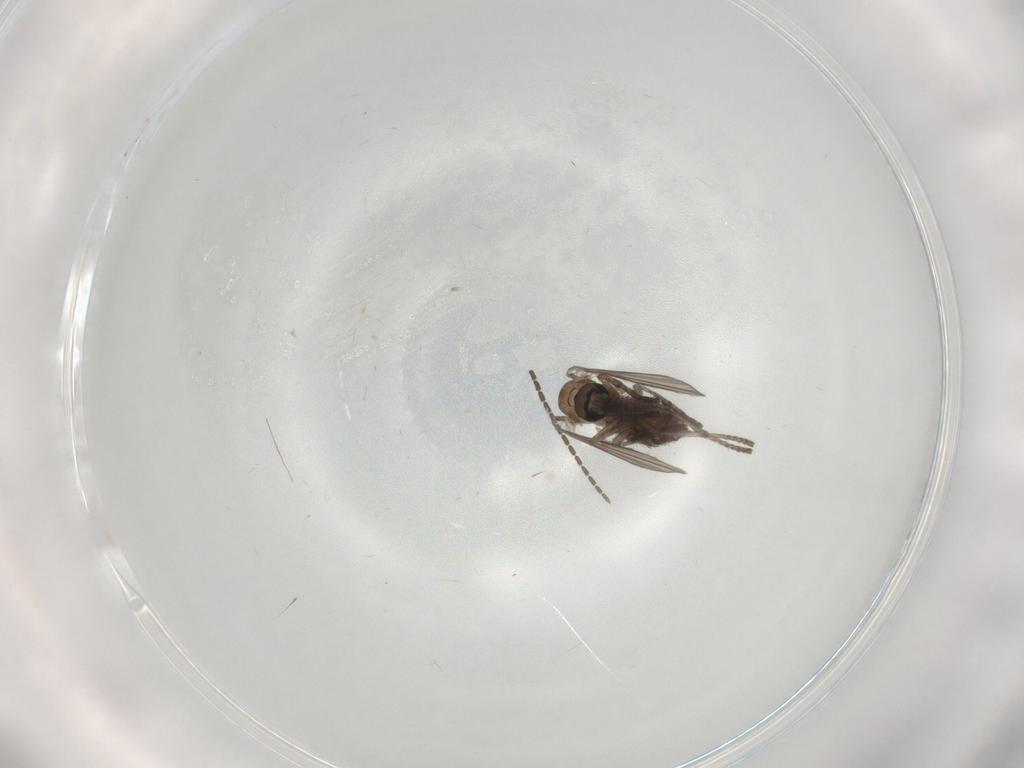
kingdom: Animalia
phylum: Arthropoda
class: Insecta
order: Diptera
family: Psychodidae
